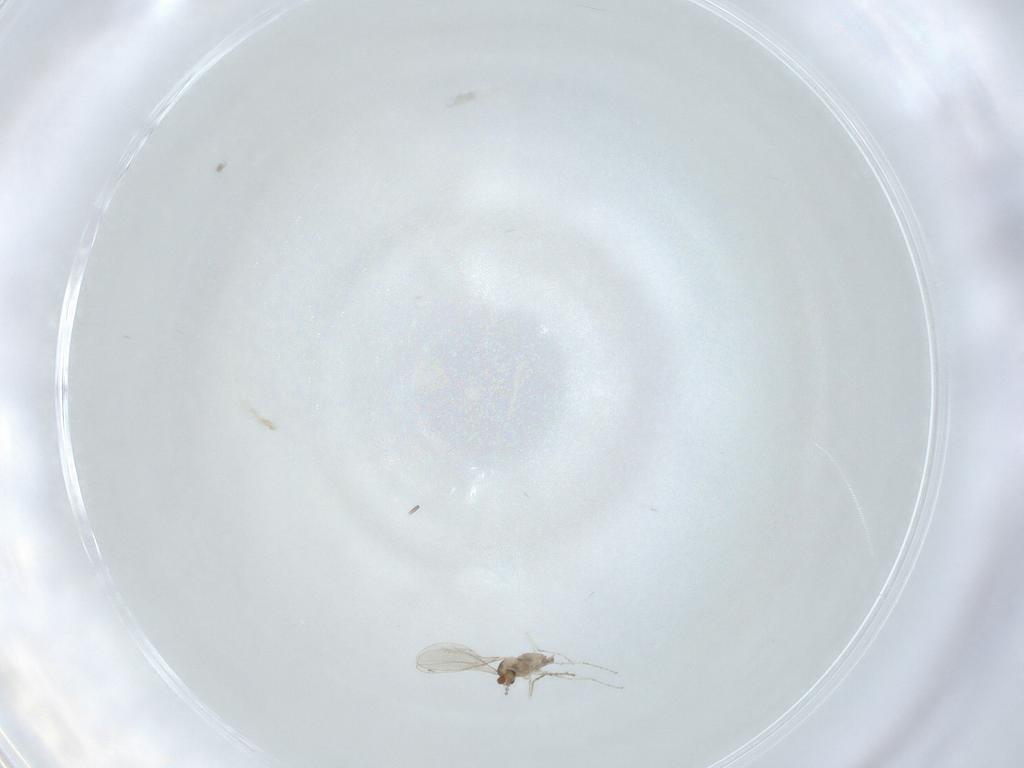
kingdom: Animalia
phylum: Arthropoda
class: Insecta
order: Diptera
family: Cecidomyiidae
